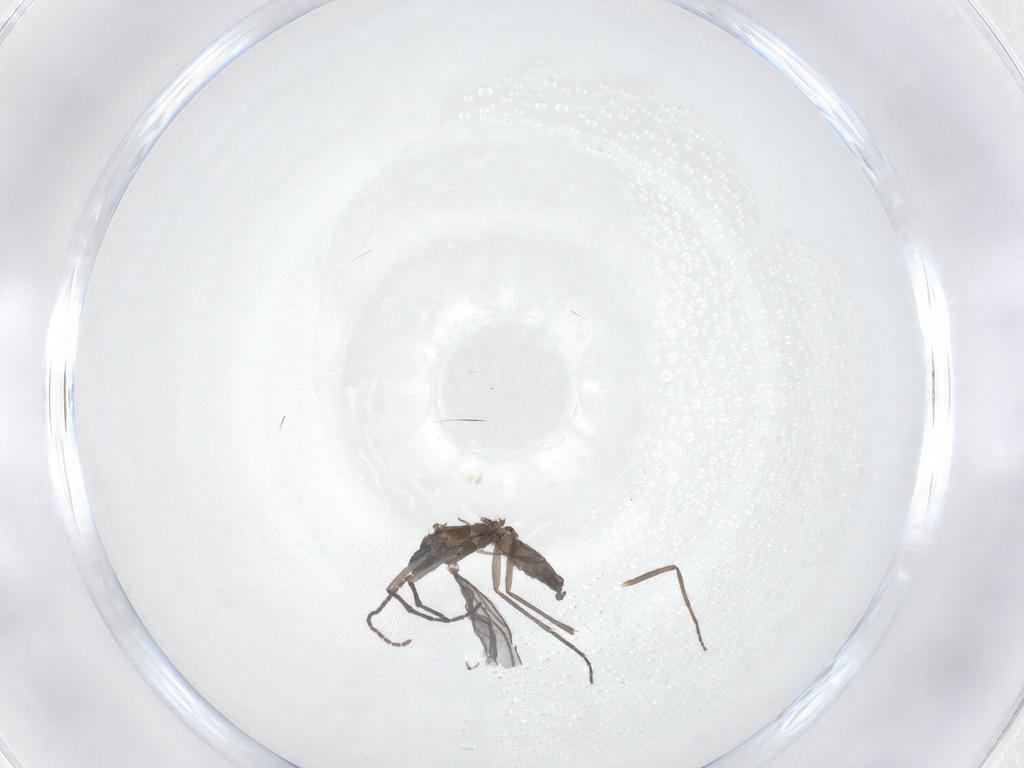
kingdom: Animalia
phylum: Arthropoda
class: Insecta
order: Diptera
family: Sciaridae
